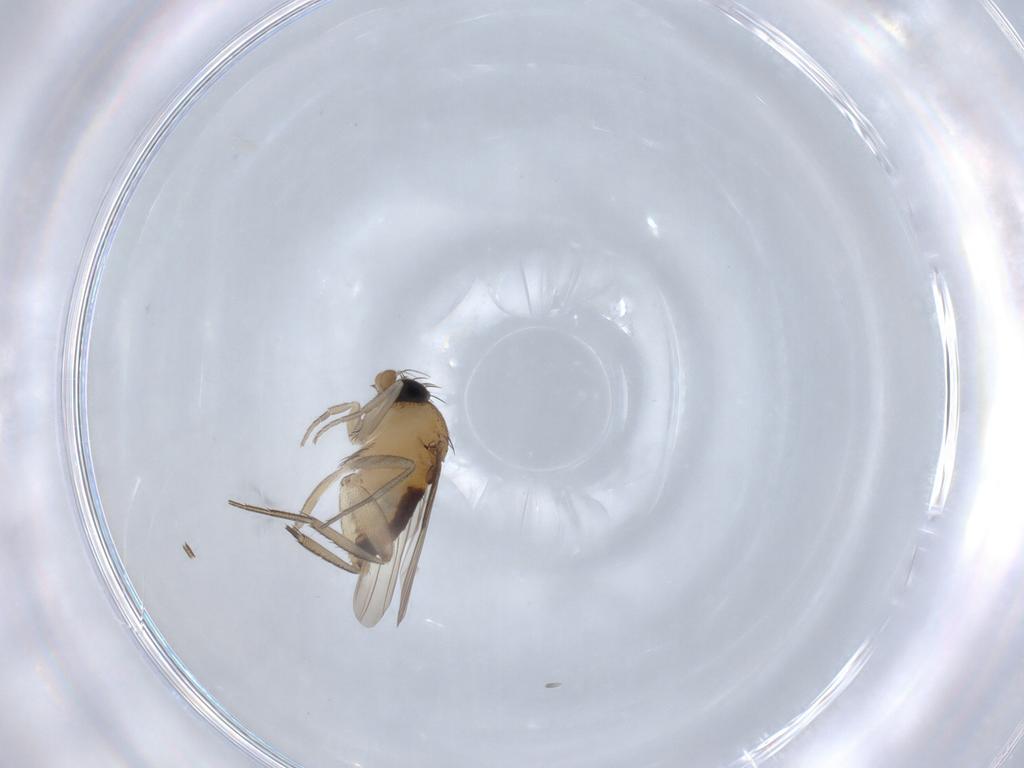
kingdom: Animalia
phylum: Arthropoda
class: Insecta
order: Diptera
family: Phoridae
